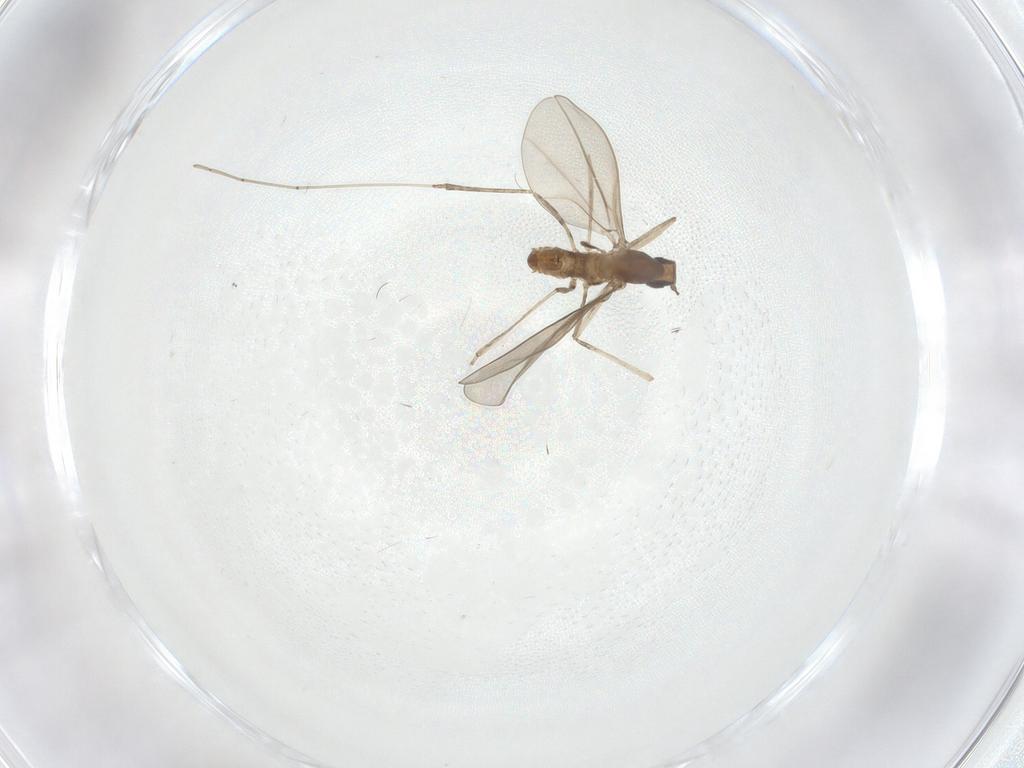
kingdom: Animalia
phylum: Arthropoda
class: Insecta
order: Diptera
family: Cecidomyiidae
